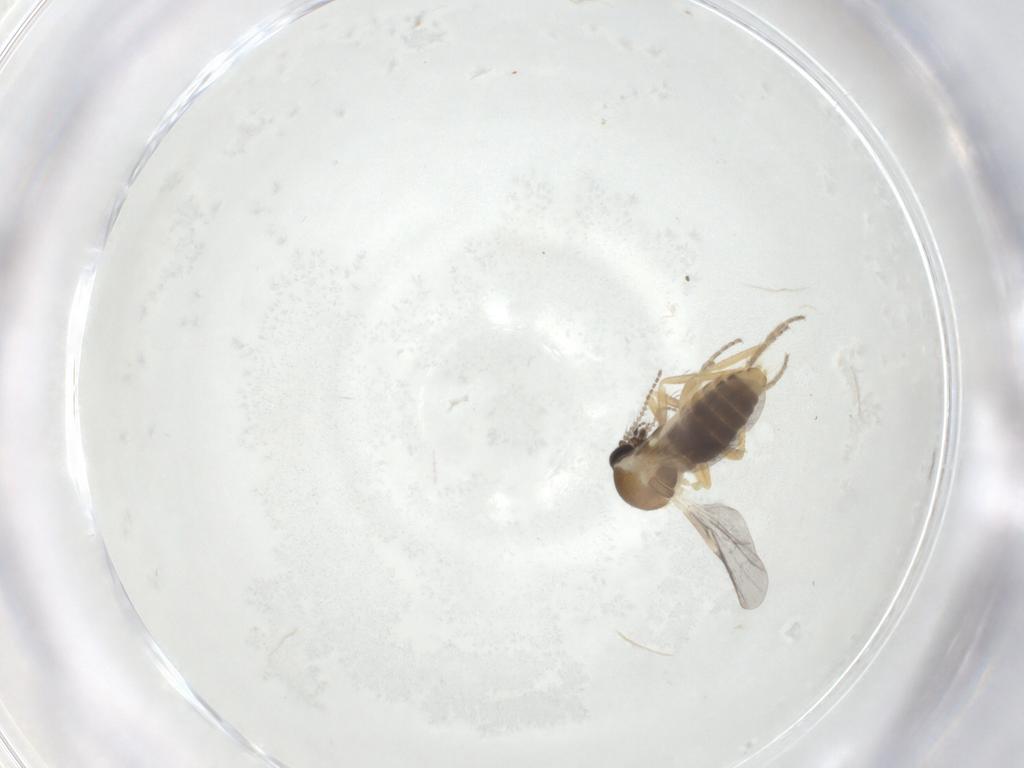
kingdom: Animalia
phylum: Arthropoda
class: Insecta
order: Diptera
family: Ceratopogonidae
